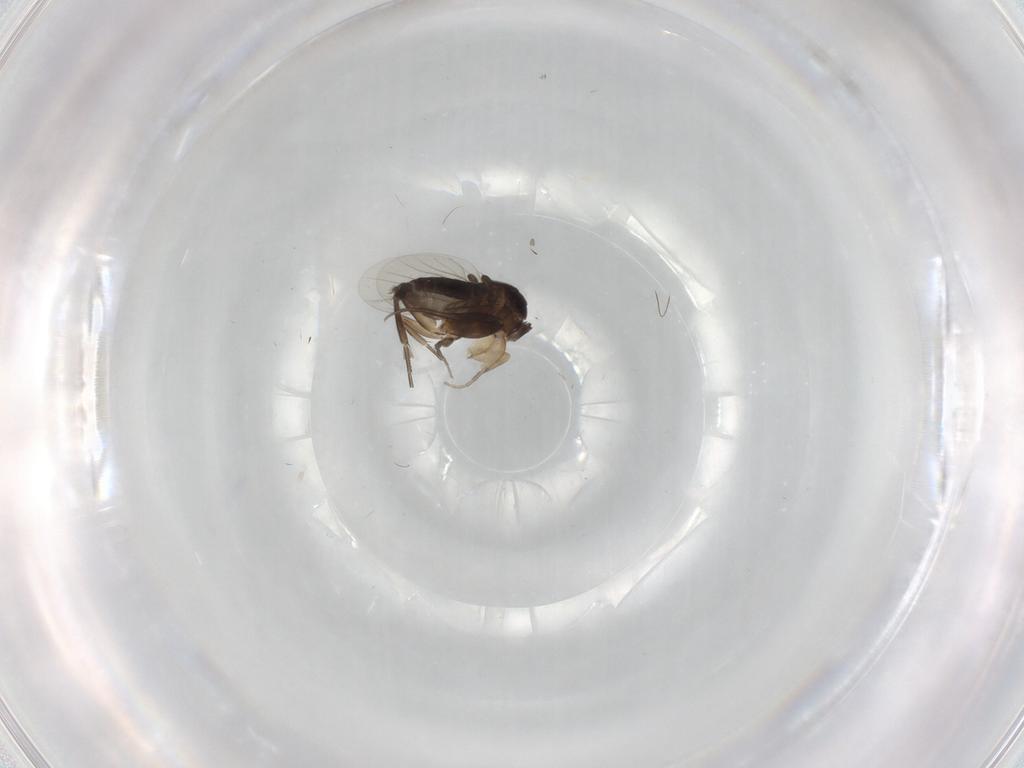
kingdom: Animalia
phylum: Arthropoda
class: Insecta
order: Diptera
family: Phoridae
